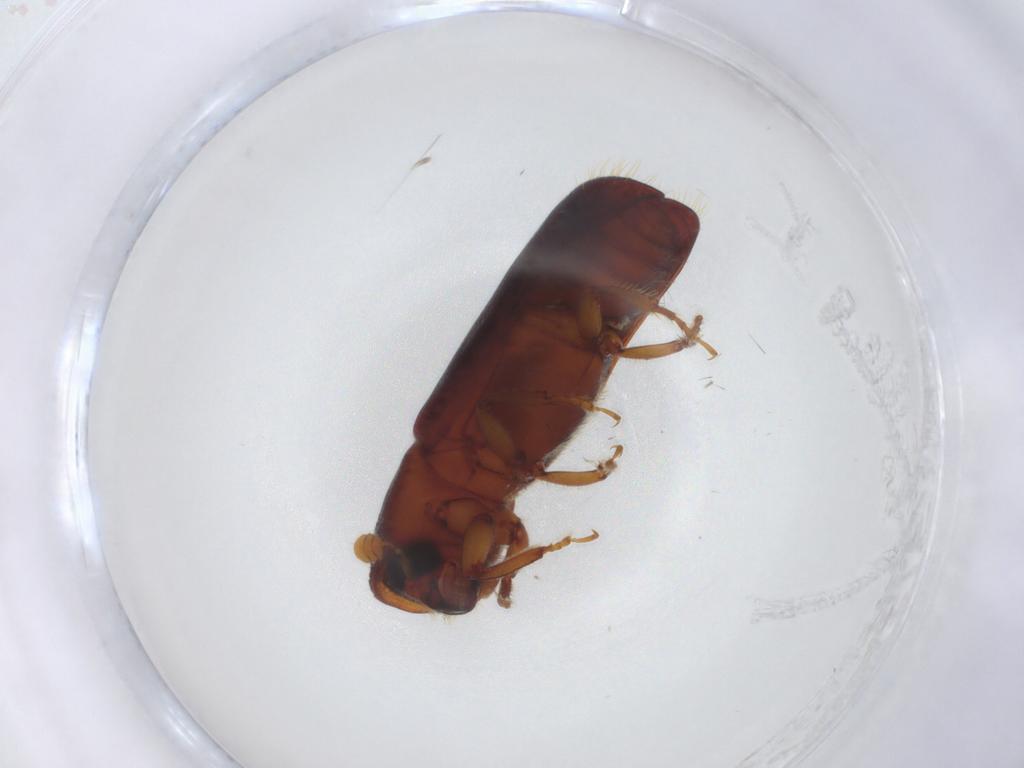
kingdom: Animalia
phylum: Arthropoda
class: Insecta
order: Coleoptera
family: Curculionidae
